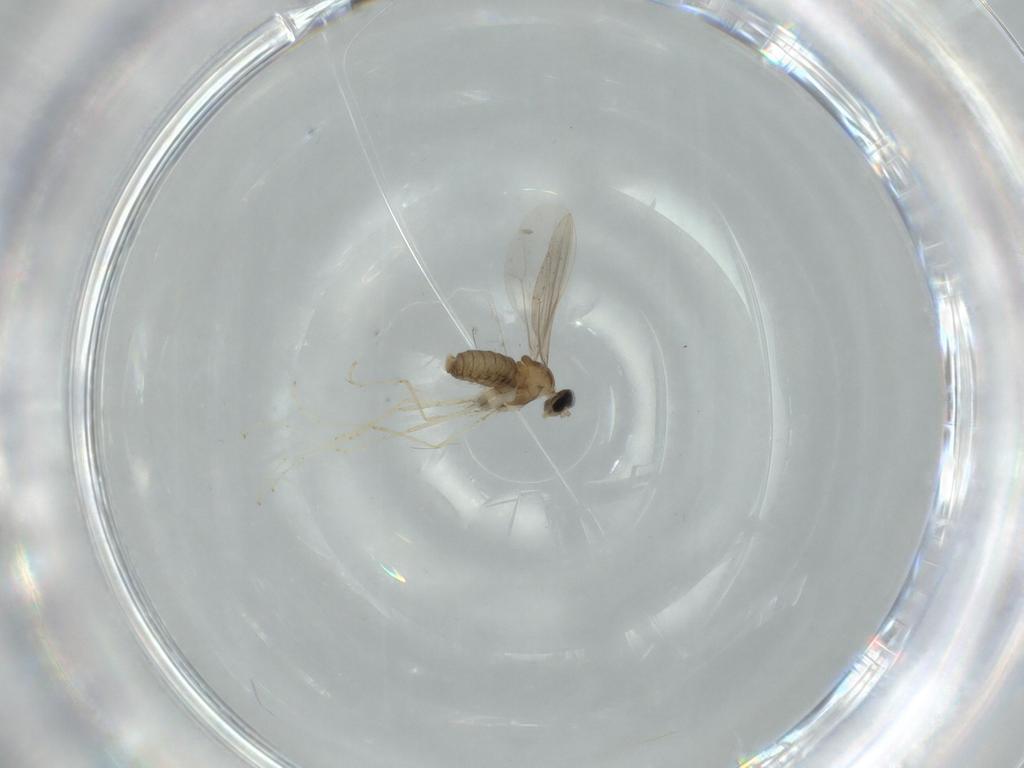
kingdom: Animalia
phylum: Arthropoda
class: Insecta
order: Diptera
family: Cecidomyiidae
